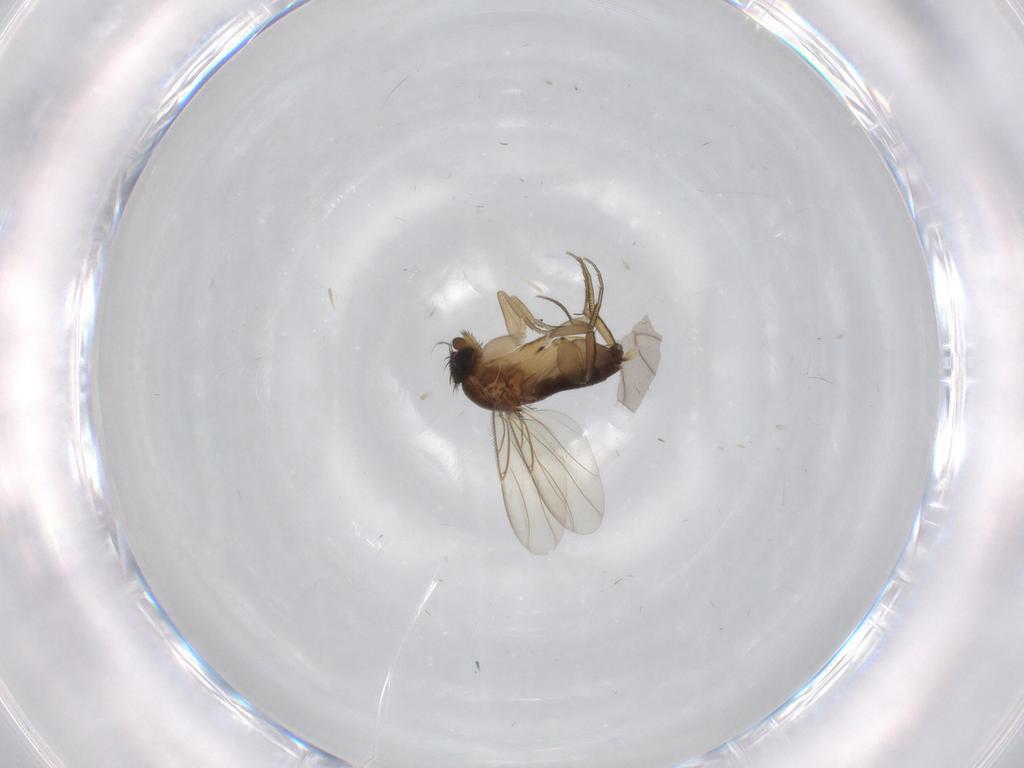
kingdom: Animalia
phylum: Arthropoda
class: Insecta
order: Diptera
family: Phoridae
